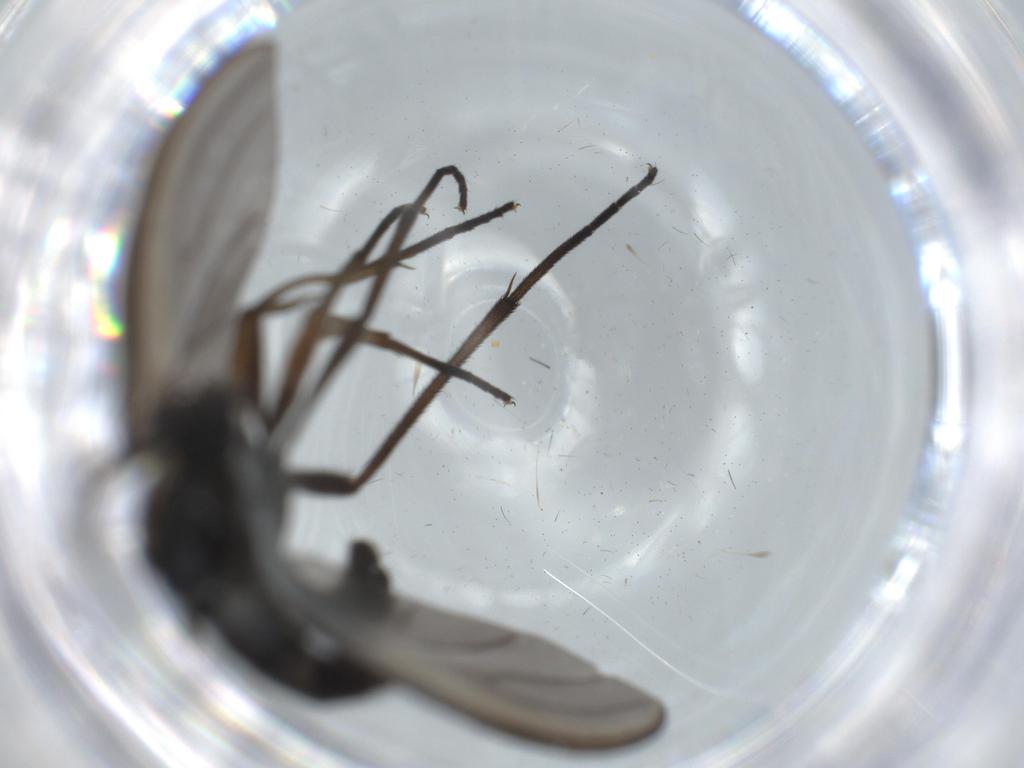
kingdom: Animalia
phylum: Arthropoda
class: Insecta
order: Diptera
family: Sciaridae
